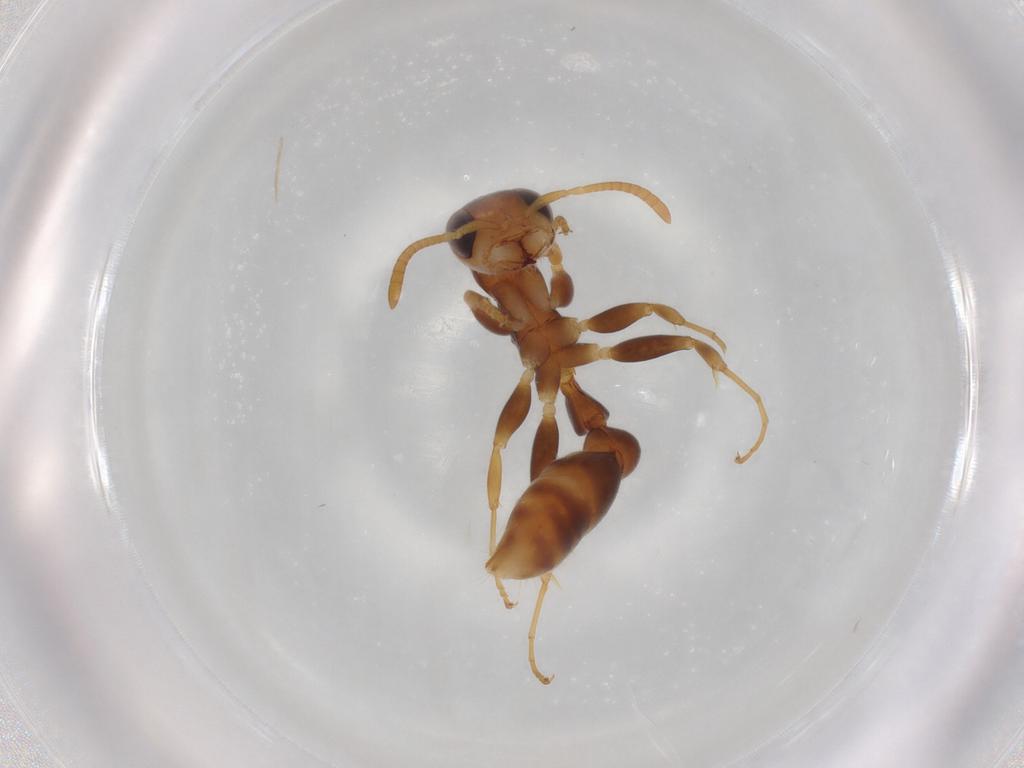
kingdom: Animalia
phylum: Arthropoda
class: Insecta
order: Hymenoptera
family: Formicidae
